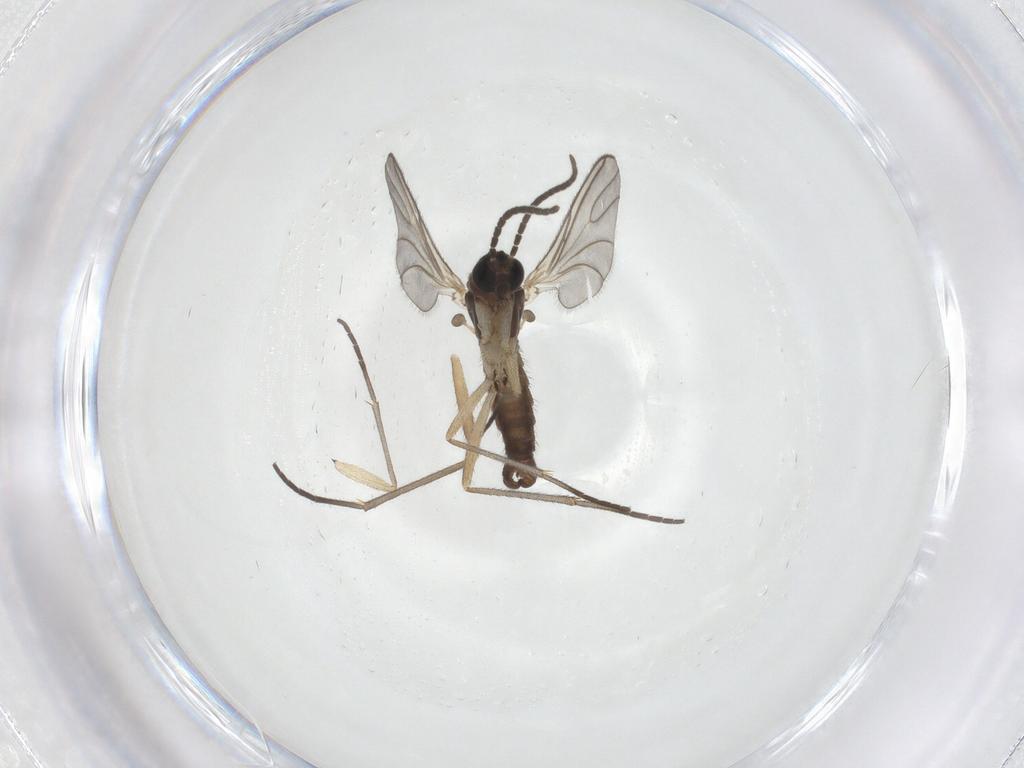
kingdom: Animalia
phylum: Arthropoda
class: Insecta
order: Diptera
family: Sciaridae
